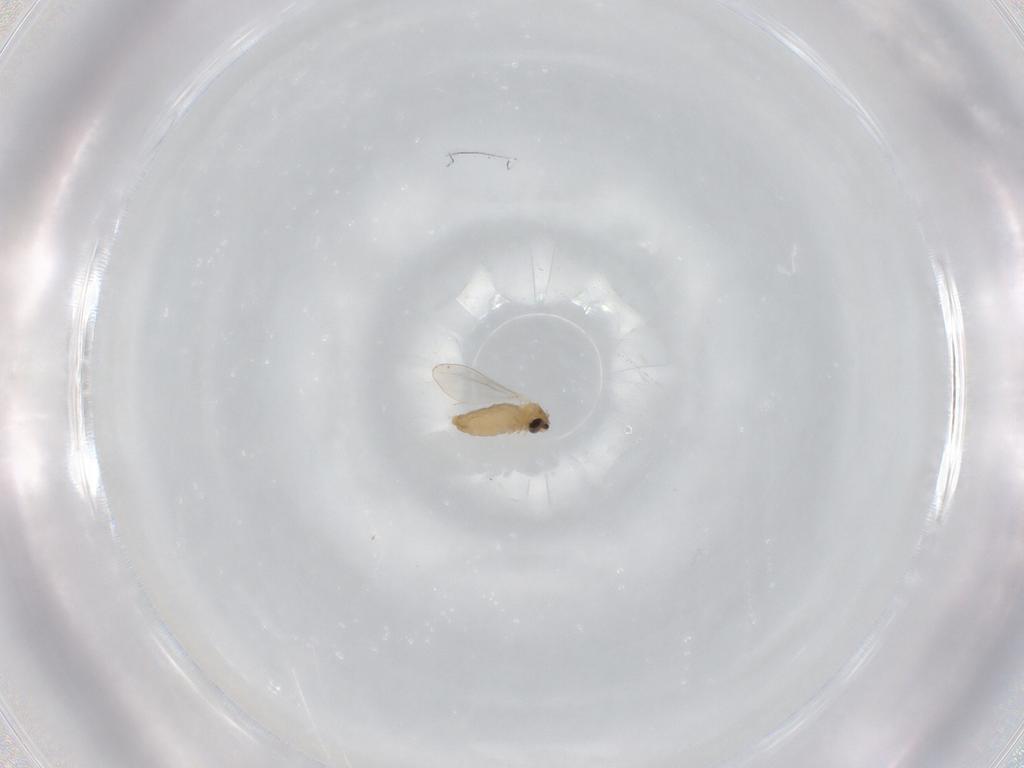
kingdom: Animalia
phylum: Arthropoda
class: Insecta
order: Diptera
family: Cecidomyiidae
